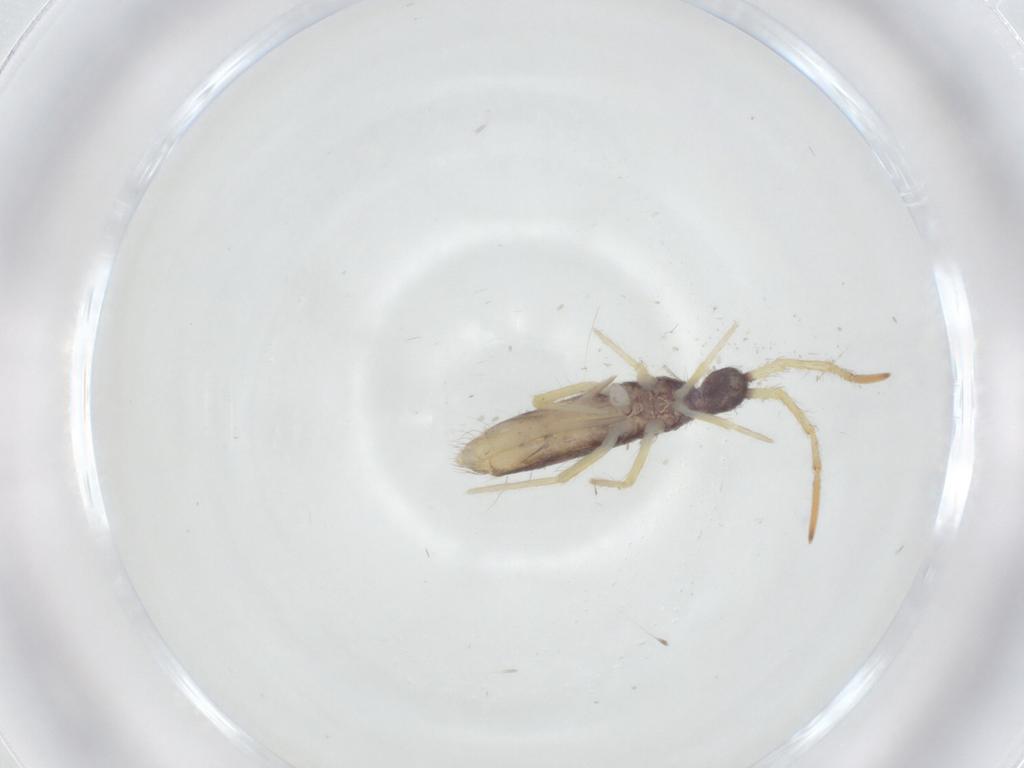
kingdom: Animalia
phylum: Arthropoda
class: Collembola
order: Entomobryomorpha
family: Entomobryidae
